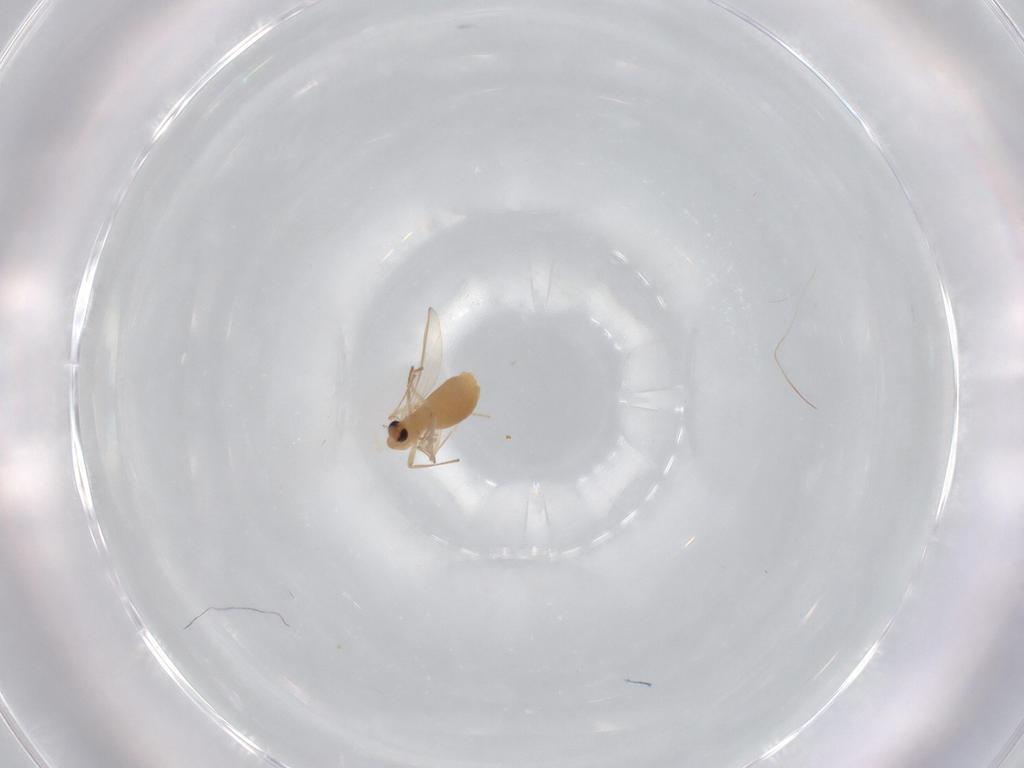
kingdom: Animalia
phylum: Arthropoda
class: Insecta
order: Diptera
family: Chironomidae
